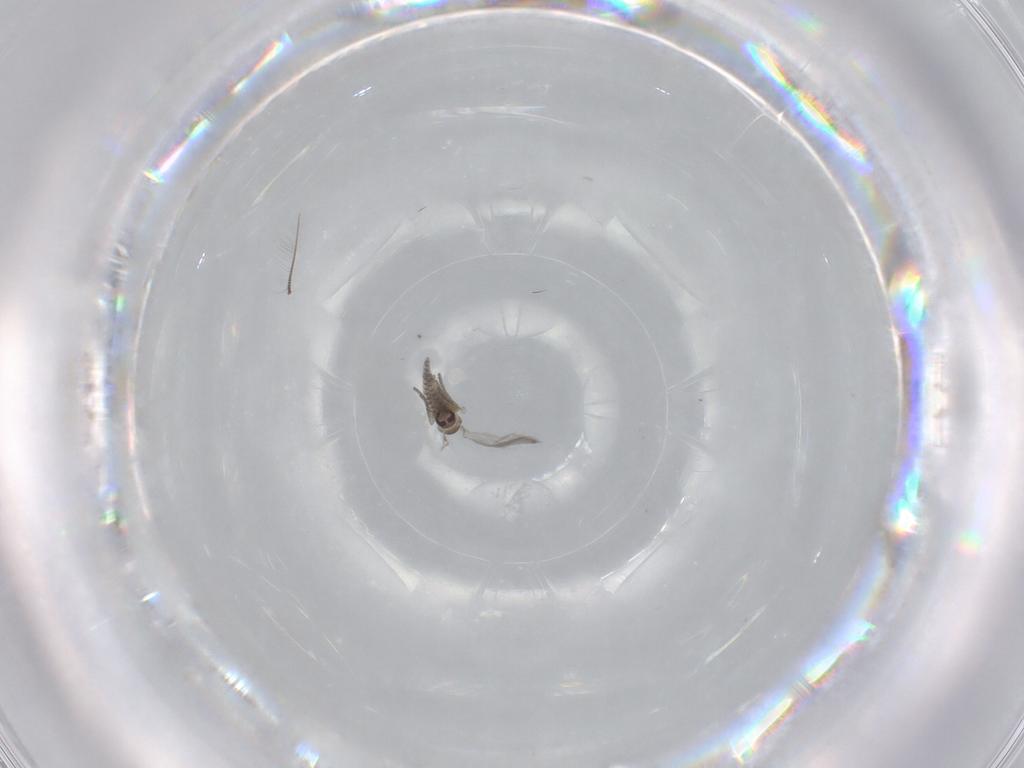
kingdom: Animalia
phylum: Arthropoda
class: Insecta
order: Diptera
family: Psychodidae
